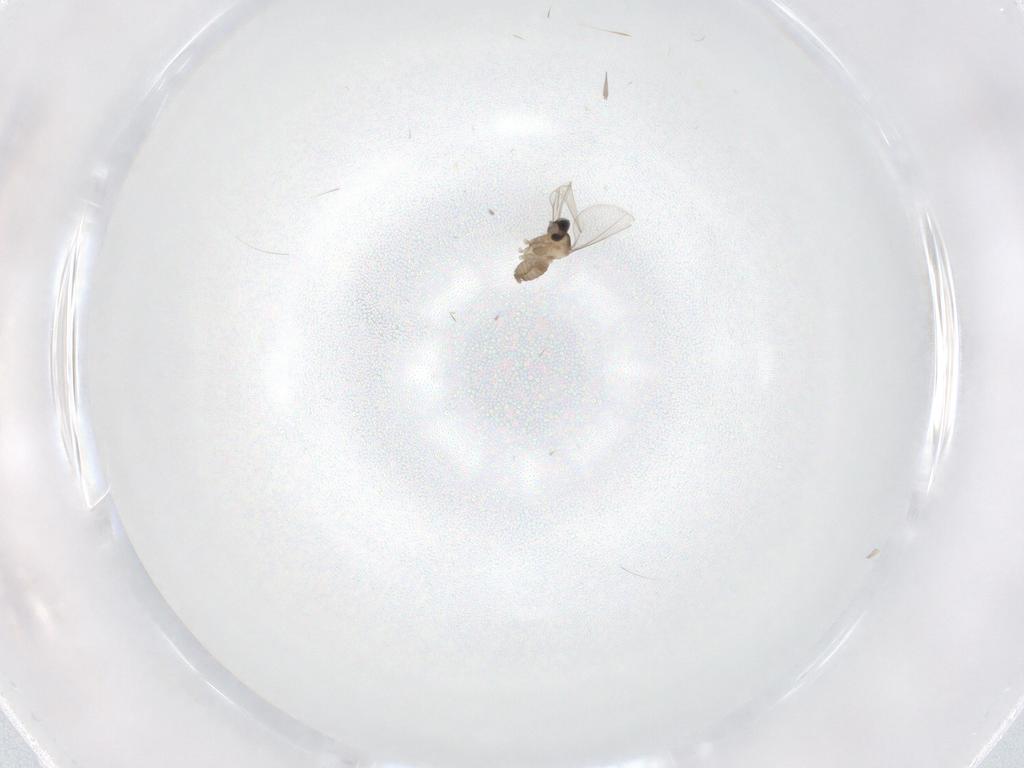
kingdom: Animalia
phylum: Arthropoda
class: Insecta
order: Diptera
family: Cecidomyiidae
